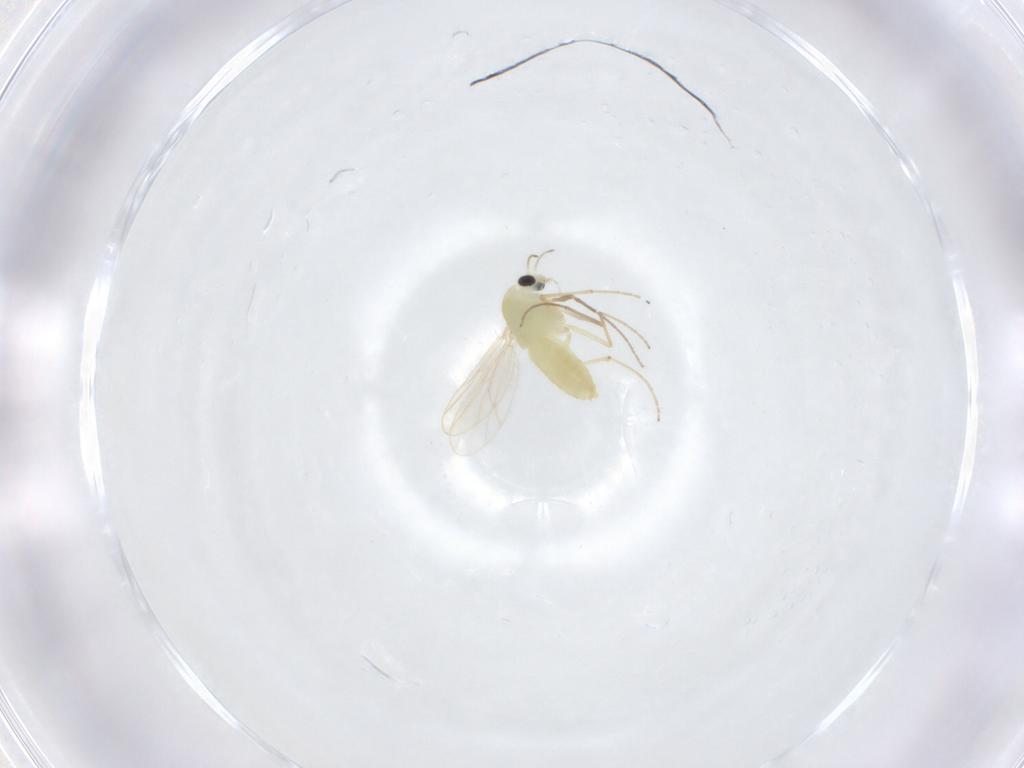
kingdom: Animalia
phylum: Arthropoda
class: Insecta
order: Diptera
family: Chironomidae
